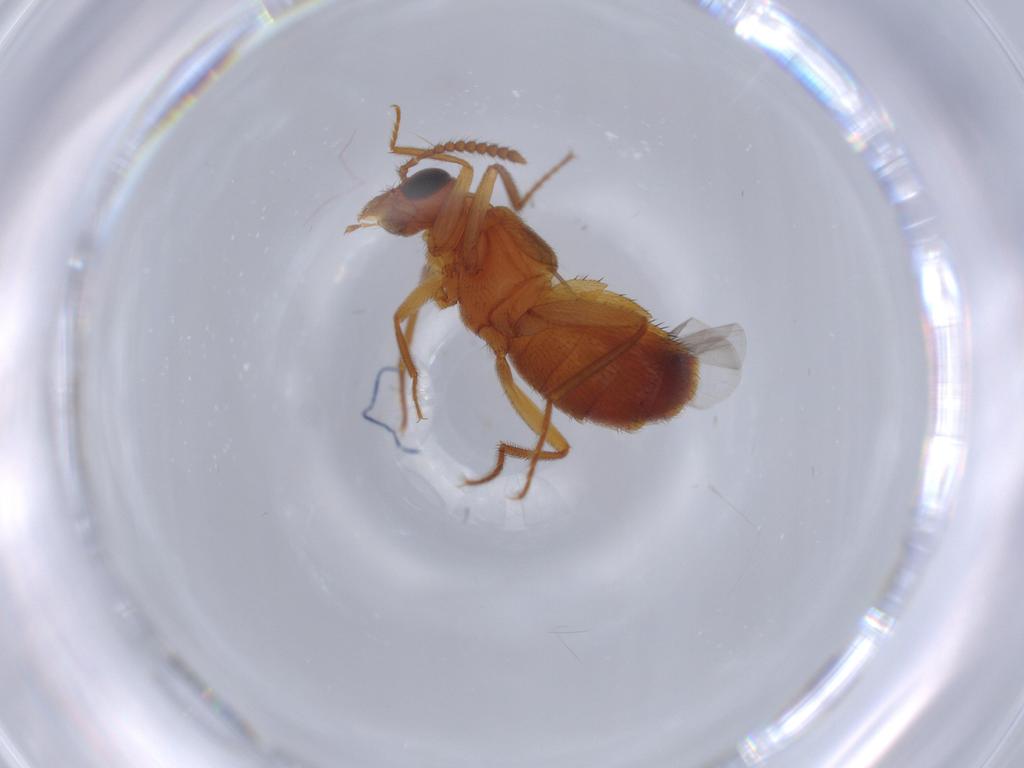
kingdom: Animalia
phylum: Arthropoda
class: Insecta
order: Coleoptera
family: Staphylinidae
